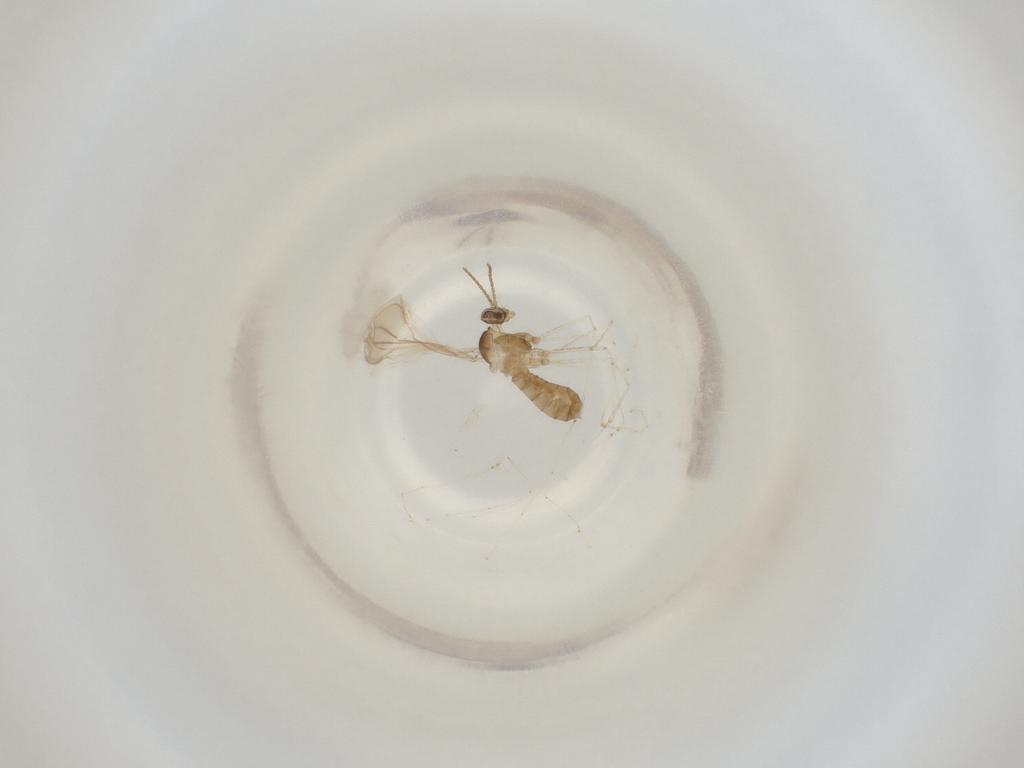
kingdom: Animalia
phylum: Arthropoda
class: Insecta
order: Diptera
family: Cecidomyiidae
